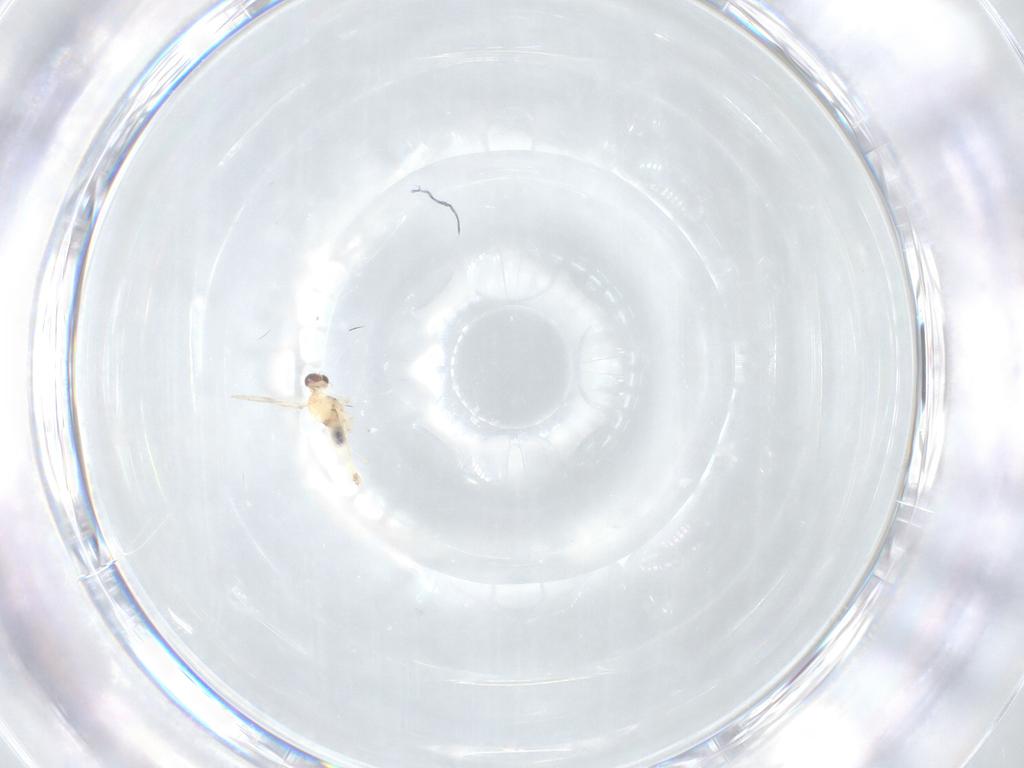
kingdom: Animalia
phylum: Arthropoda
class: Insecta
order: Diptera
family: Cecidomyiidae
